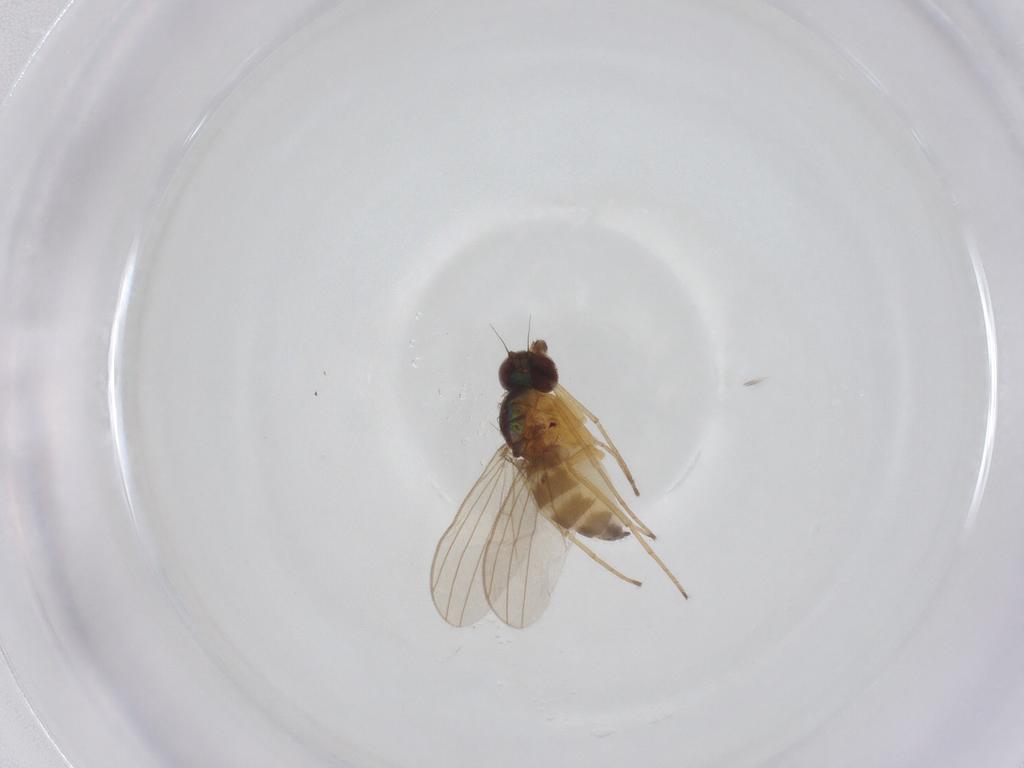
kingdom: Animalia
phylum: Arthropoda
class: Insecta
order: Diptera
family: Dolichopodidae
